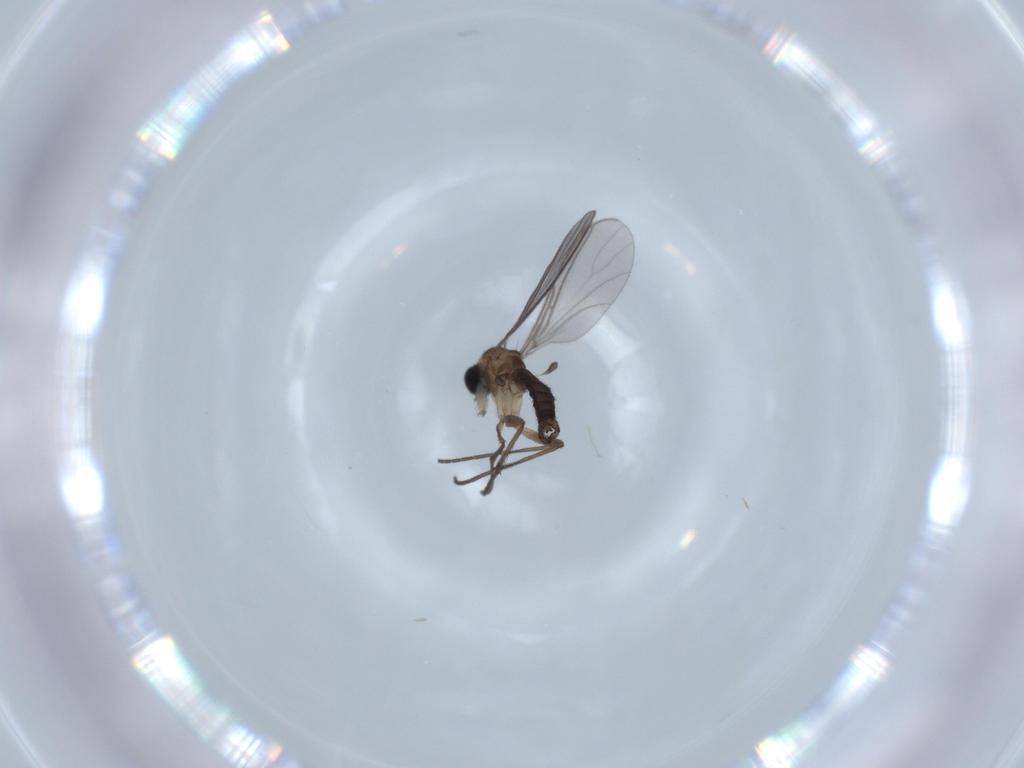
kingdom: Animalia
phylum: Arthropoda
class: Insecta
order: Diptera
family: Sciaridae
